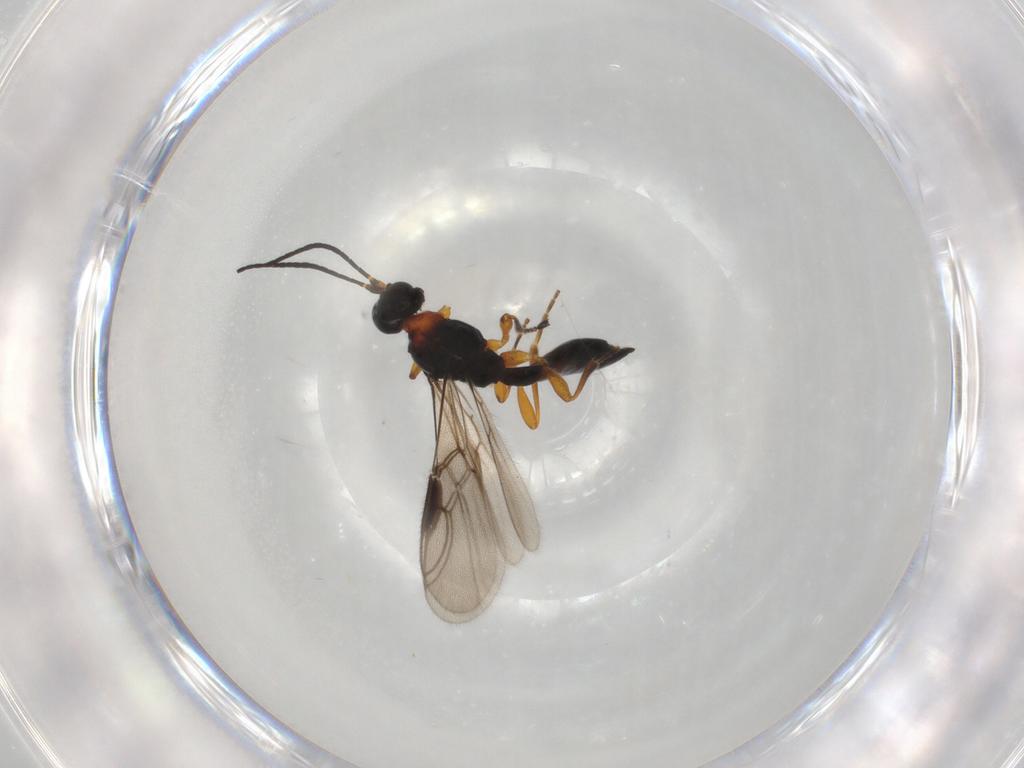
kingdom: Animalia
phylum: Arthropoda
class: Insecta
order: Hymenoptera
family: Braconidae
